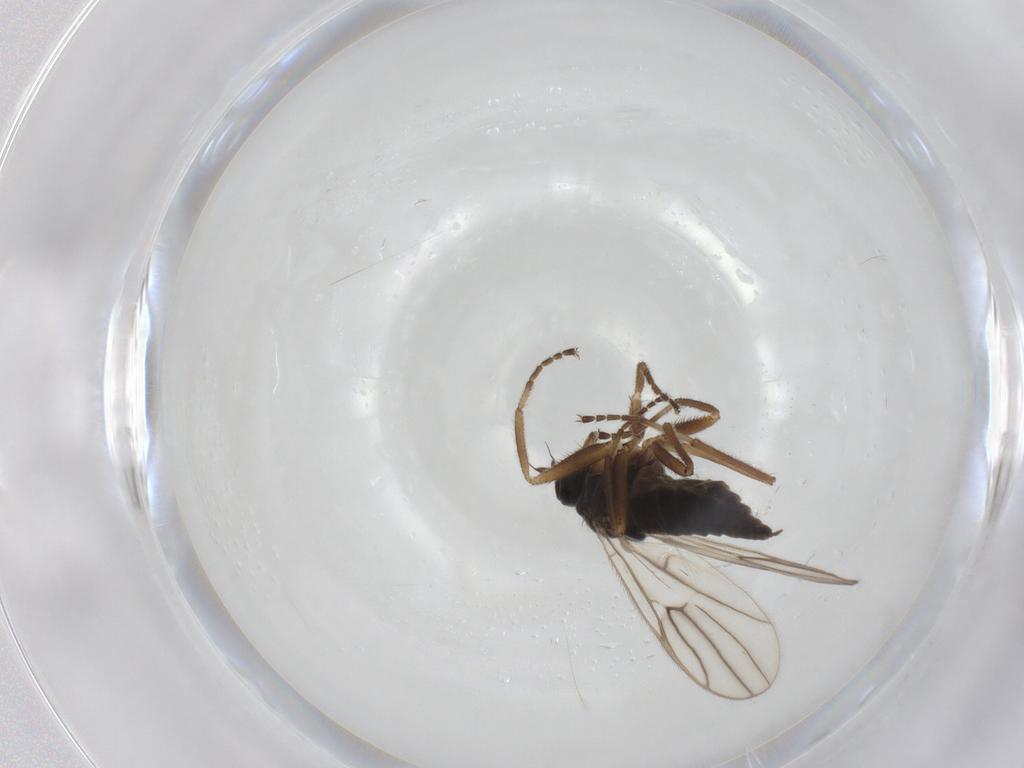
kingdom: Animalia
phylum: Arthropoda
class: Insecta
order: Diptera
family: Hybotidae
